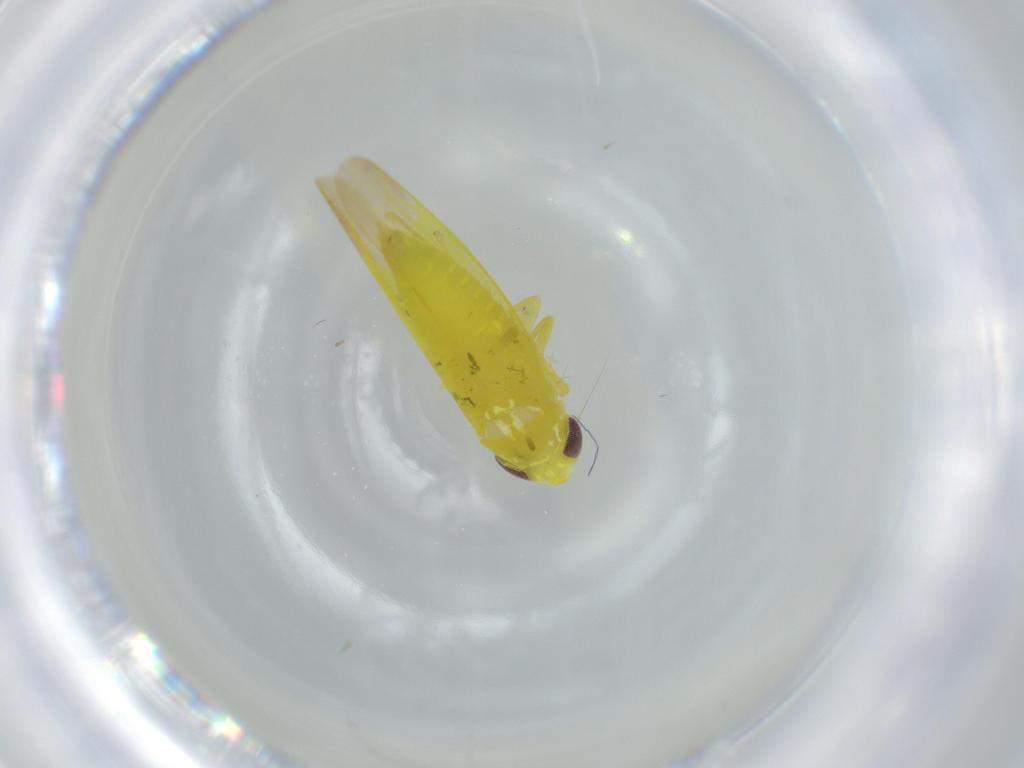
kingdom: Animalia
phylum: Arthropoda
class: Insecta
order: Hemiptera
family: Cicadellidae
